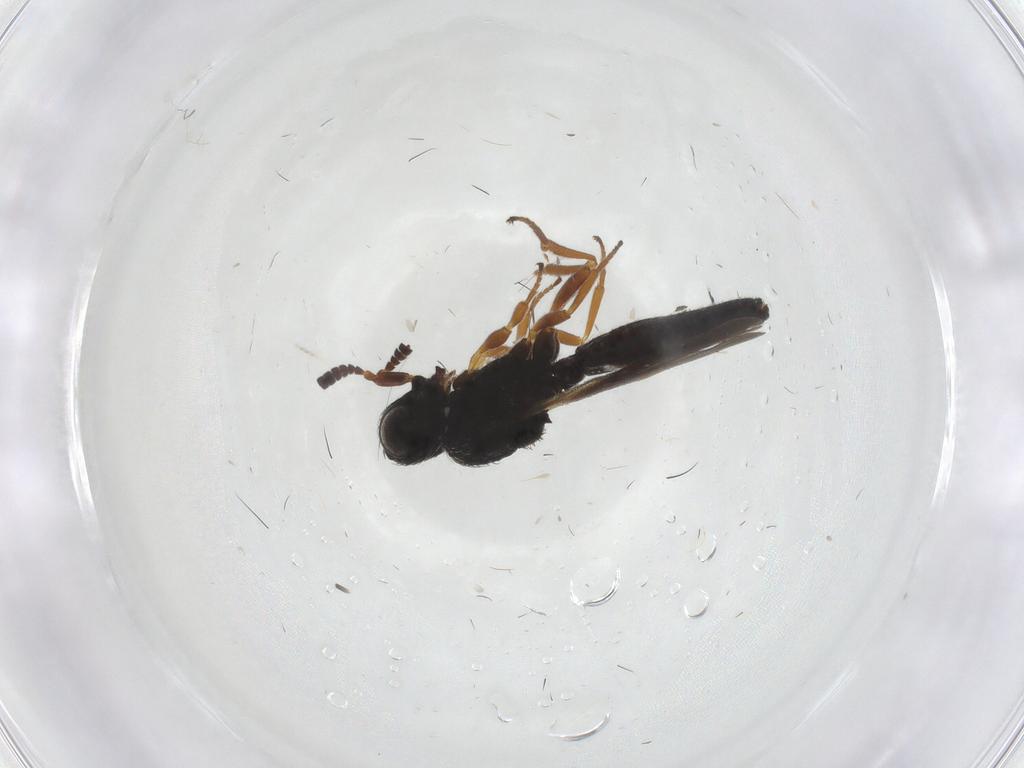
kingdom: Animalia
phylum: Arthropoda
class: Insecta
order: Hymenoptera
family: Scelionidae
